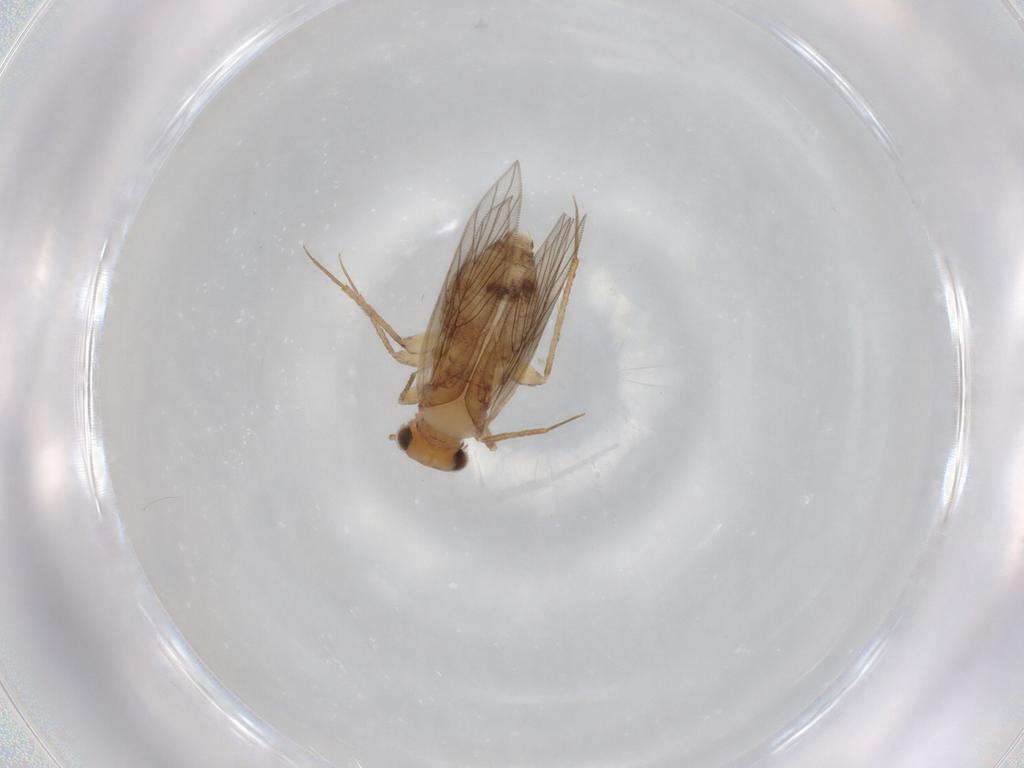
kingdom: Animalia
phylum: Arthropoda
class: Insecta
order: Psocodea
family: Lepidopsocidae
